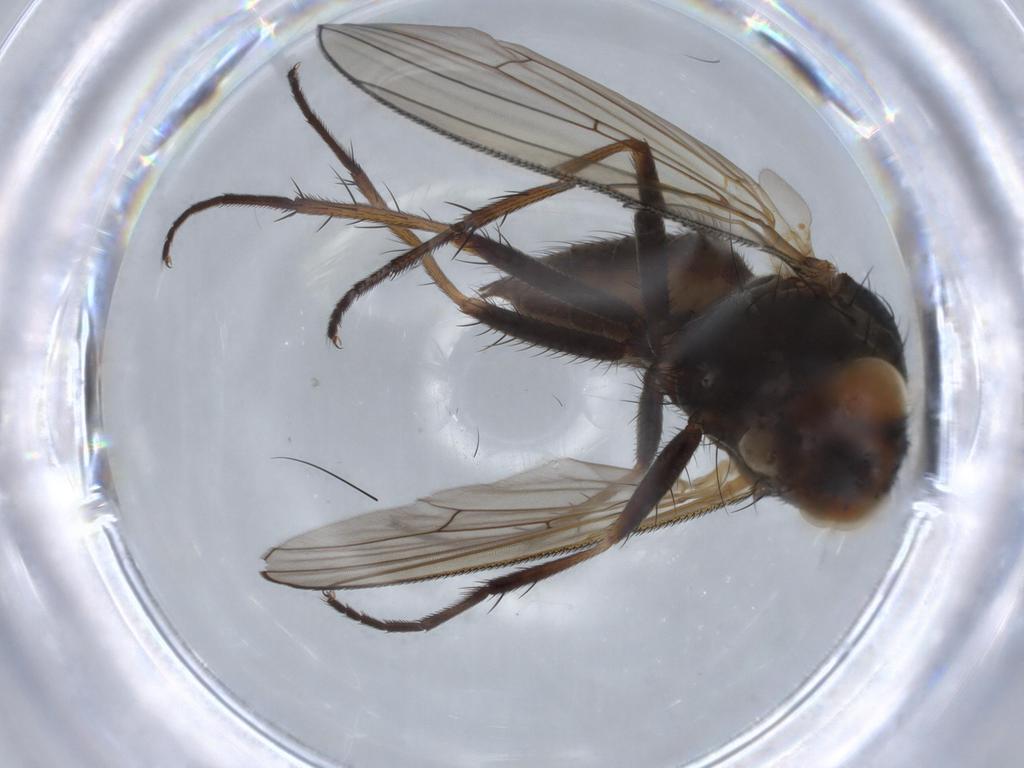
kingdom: Animalia
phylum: Arthropoda
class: Insecta
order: Diptera
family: Anthomyiidae
